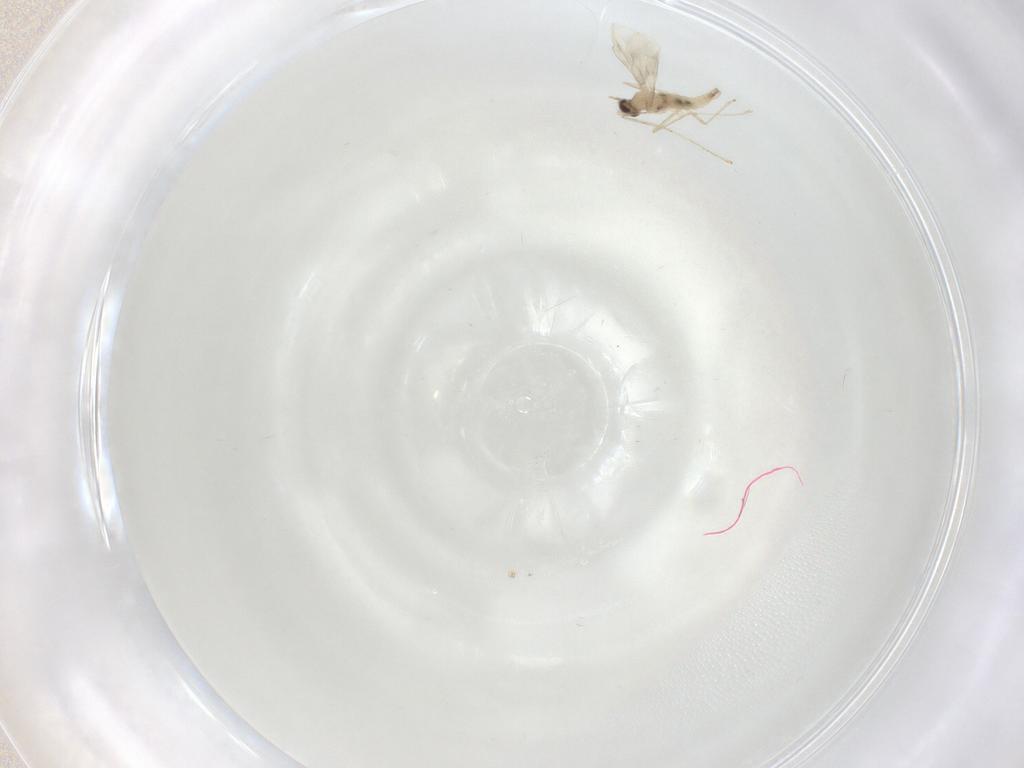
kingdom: Animalia
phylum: Arthropoda
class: Insecta
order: Diptera
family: Cecidomyiidae
